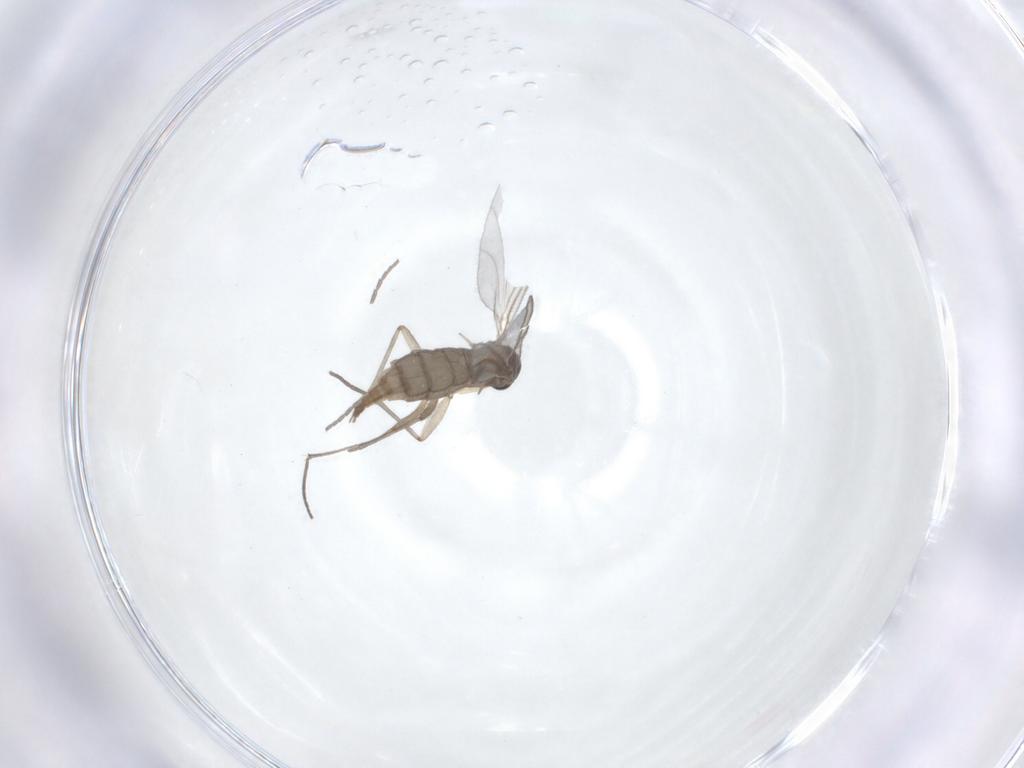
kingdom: Animalia
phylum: Arthropoda
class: Insecta
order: Diptera
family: Sciaridae
